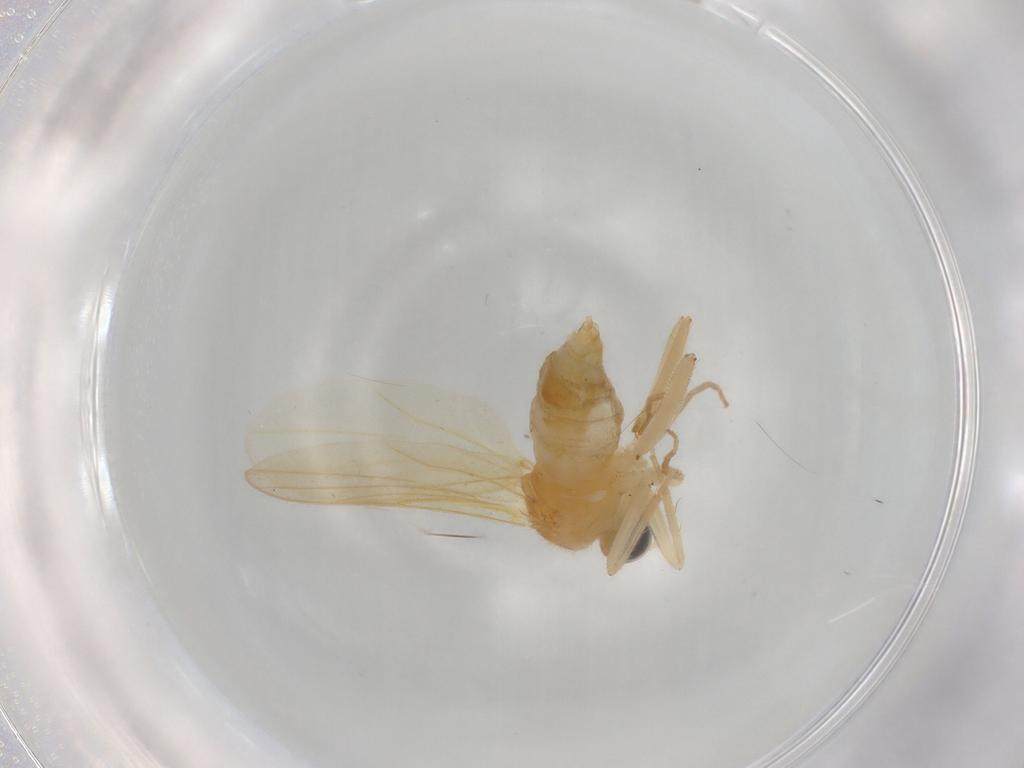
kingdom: Animalia
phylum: Arthropoda
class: Insecta
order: Diptera
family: Hybotidae
